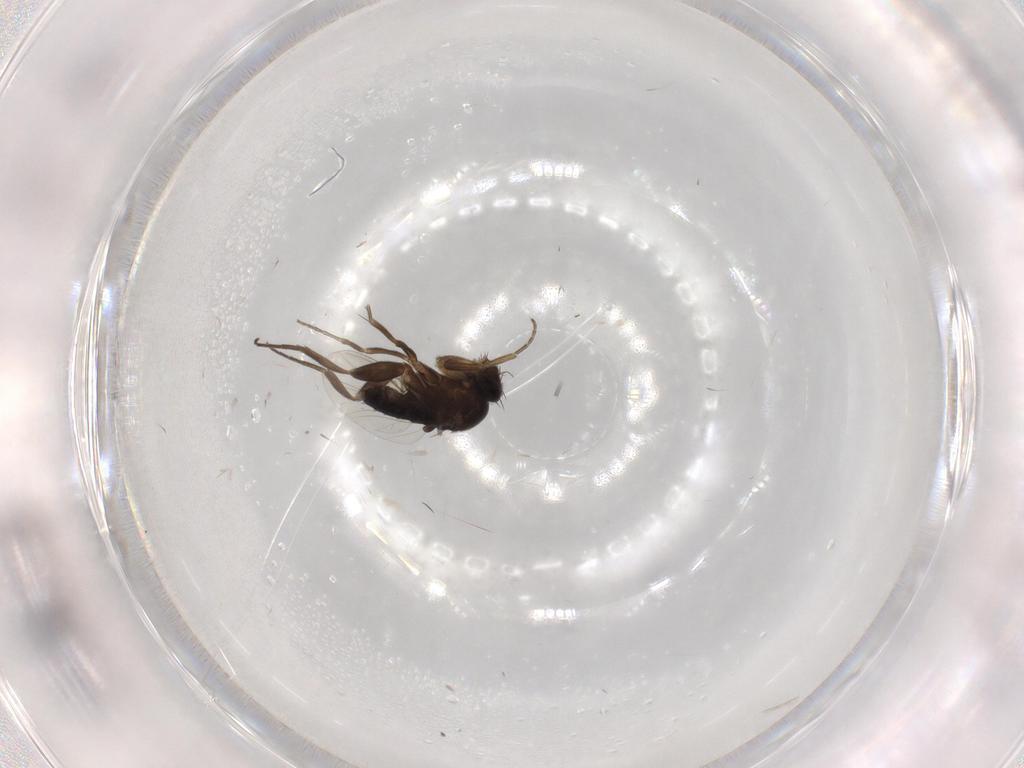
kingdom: Animalia
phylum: Arthropoda
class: Insecta
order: Diptera
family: Phoridae
